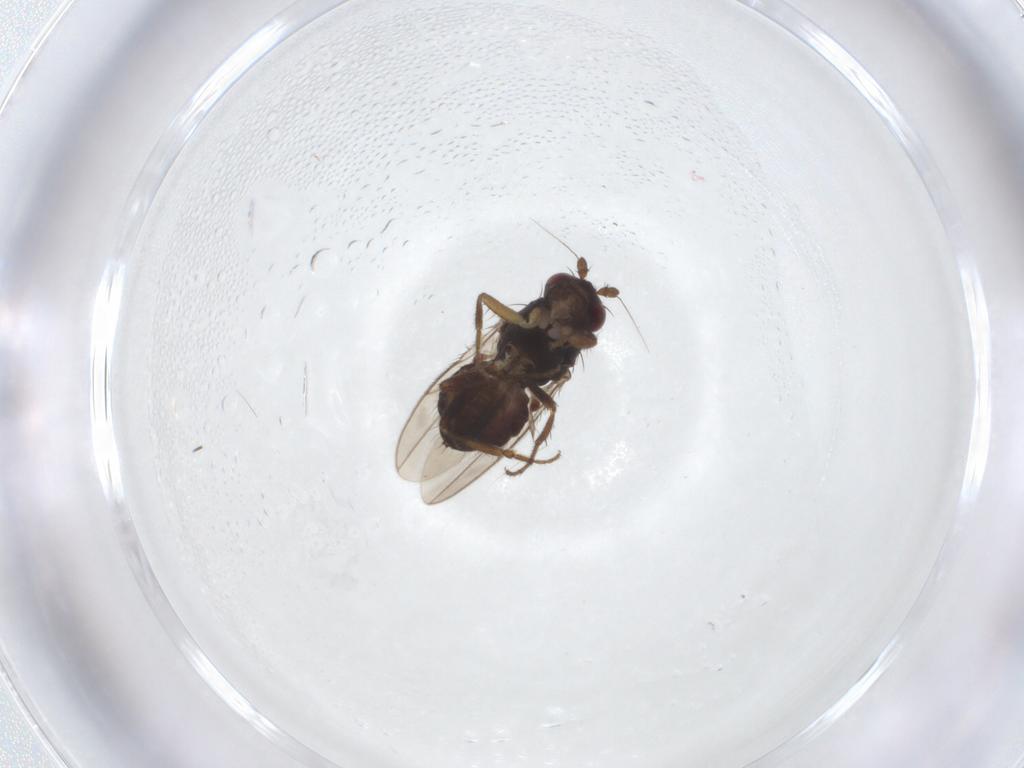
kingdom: Animalia
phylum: Arthropoda
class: Insecta
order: Diptera
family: Sphaeroceridae
